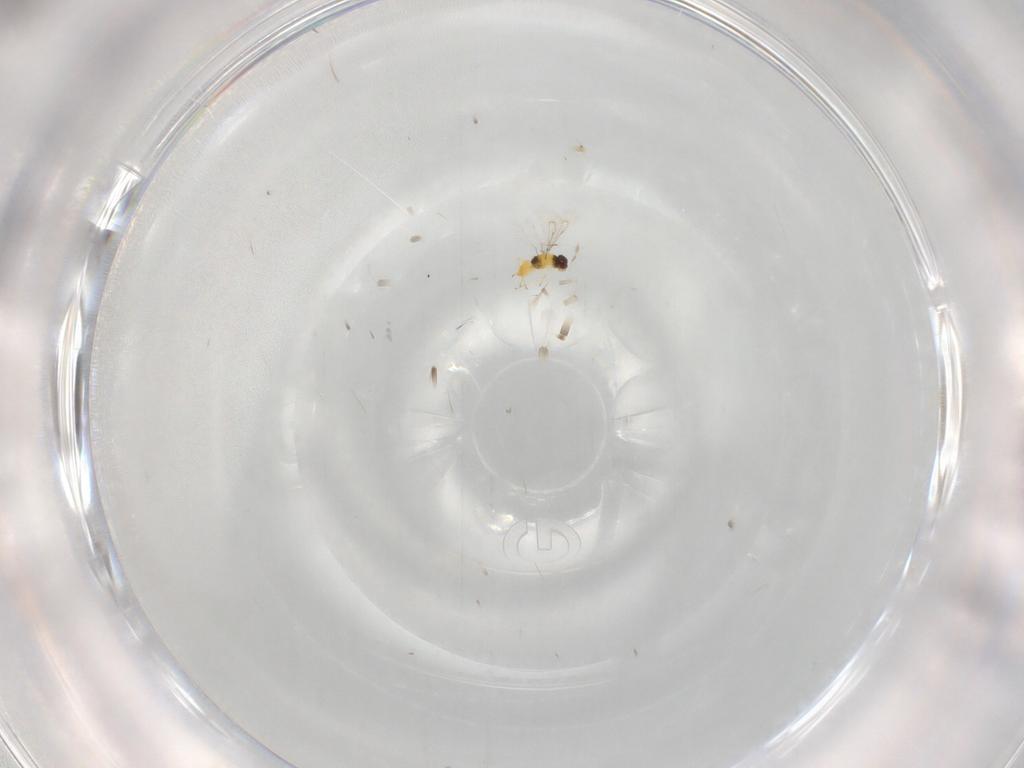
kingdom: Animalia
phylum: Arthropoda
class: Insecta
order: Hymenoptera
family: Eulophidae
